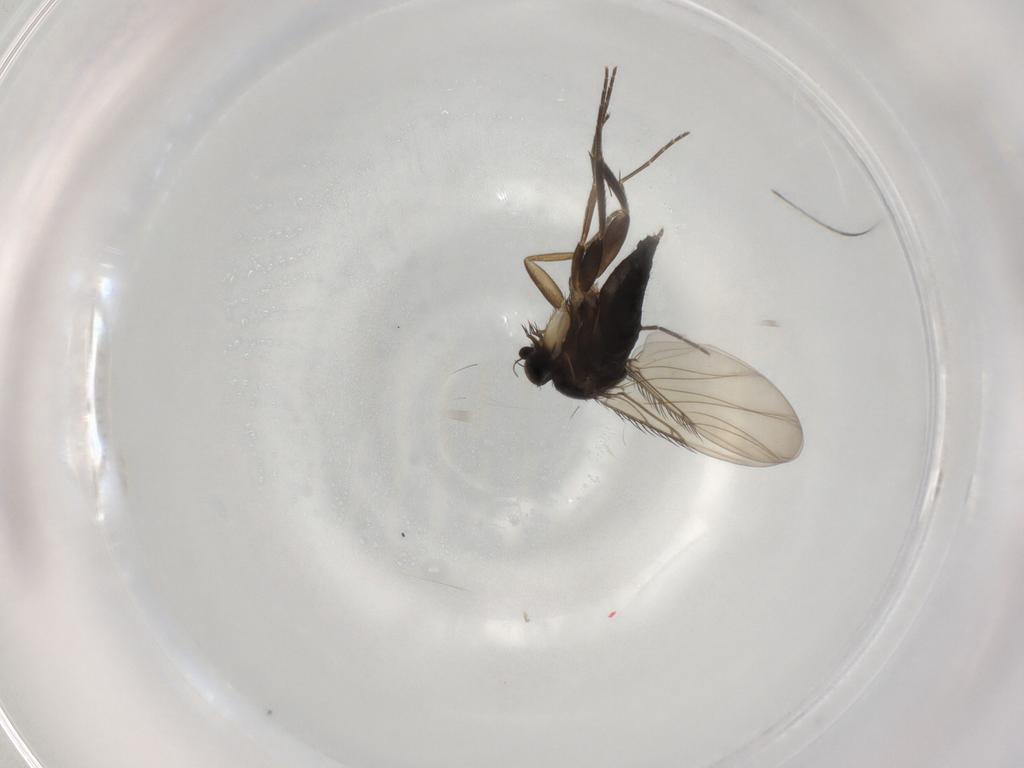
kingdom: Animalia
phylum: Arthropoda
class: Insecta
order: Diptera
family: Phoridae
